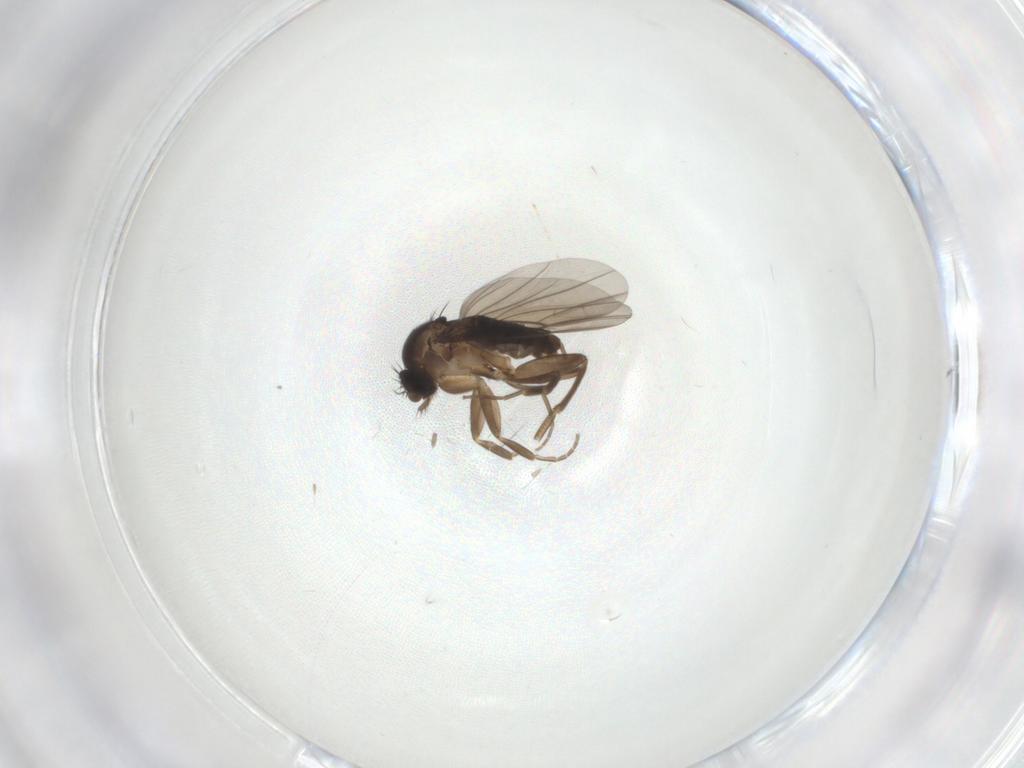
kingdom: Animalia
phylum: Arthropoda
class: Insecta
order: Diptera
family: Phoridae
